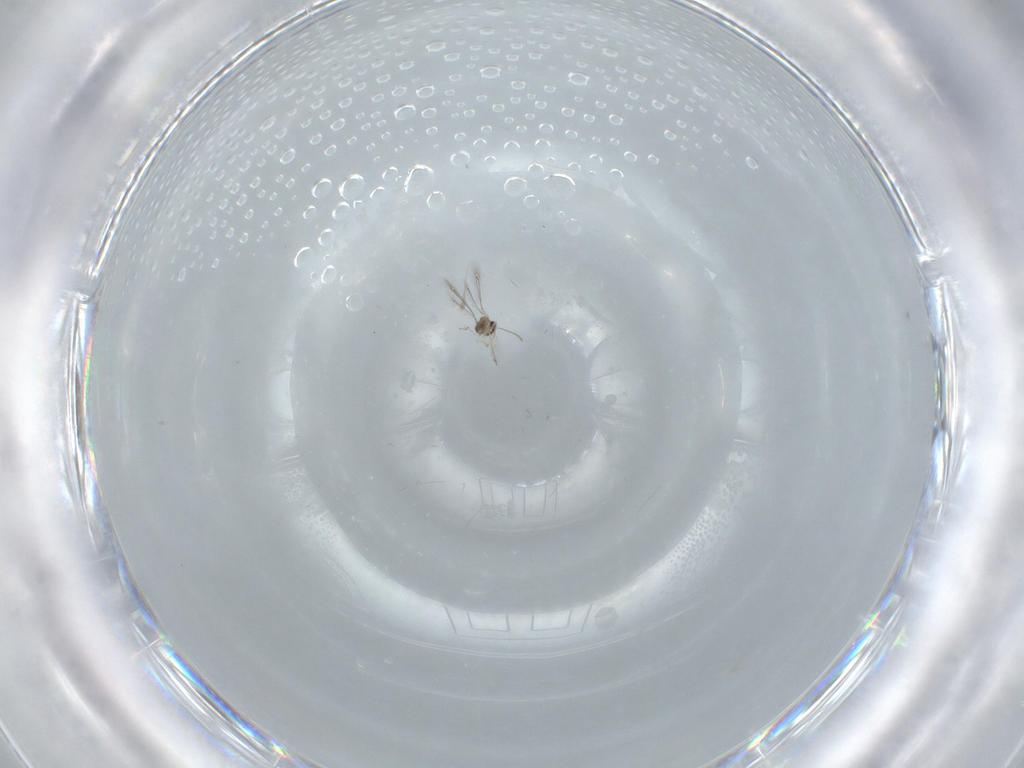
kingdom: Animalia
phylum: Arthropoda
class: Insecta
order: Hymenoptera
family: Mymaridae
